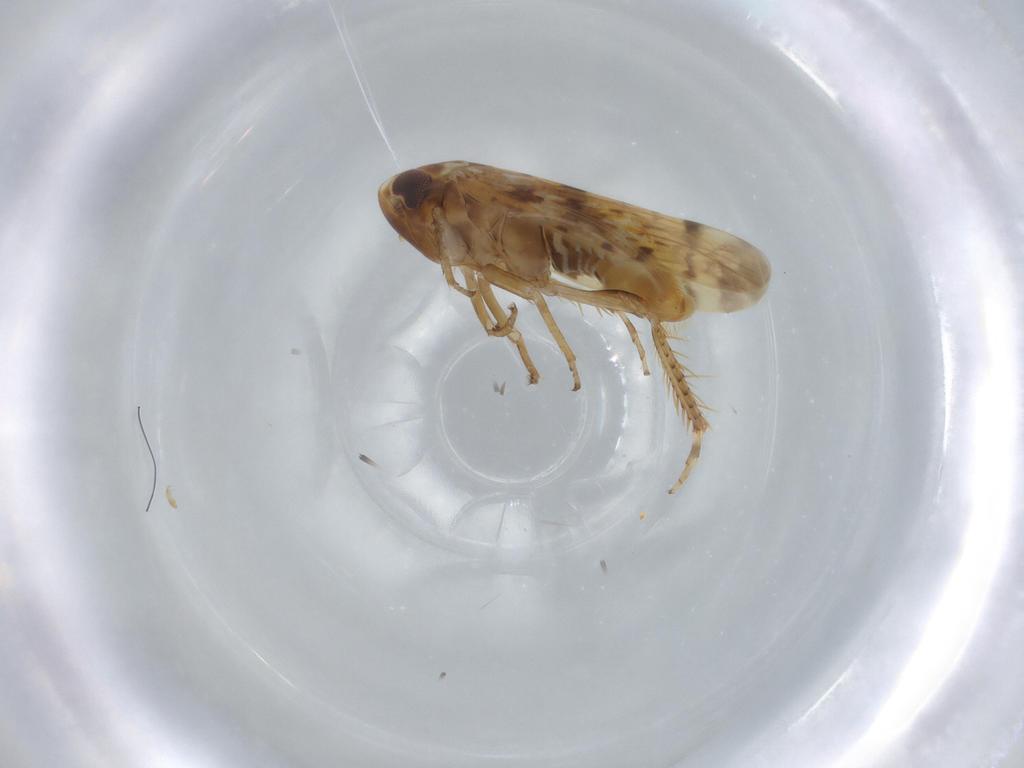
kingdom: Animalia
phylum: Arthropoda
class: Insecta
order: Hemiptera
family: Cicadellidae
